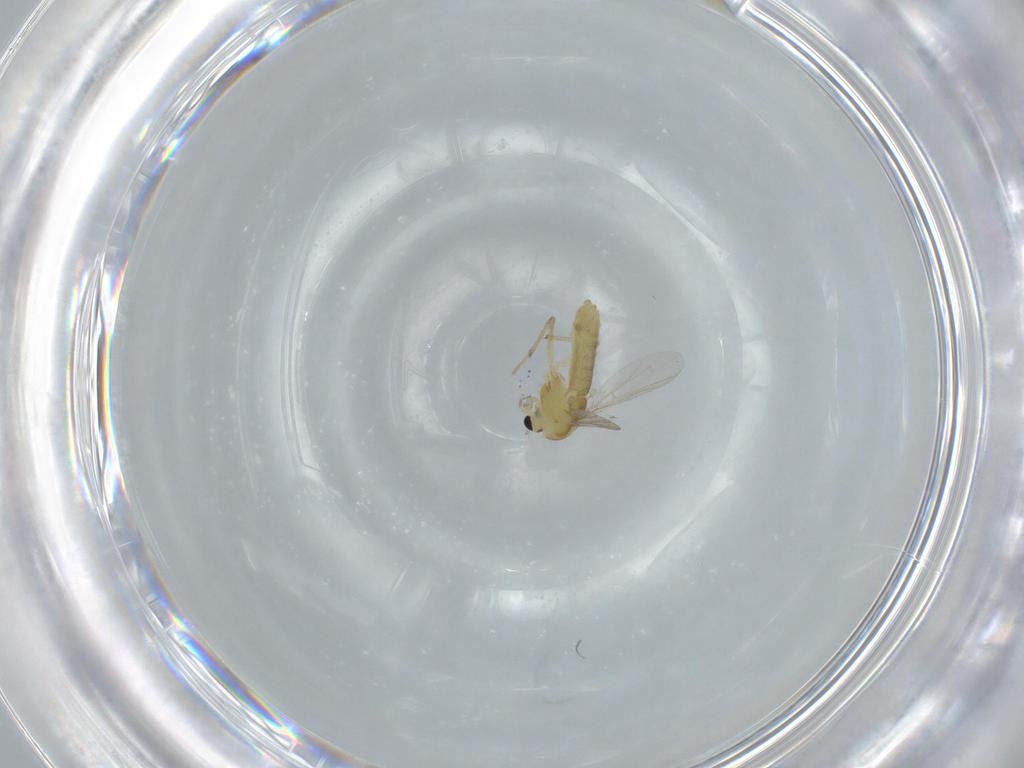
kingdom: Animalia
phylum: Arthropoda
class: Insecta
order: Diptera
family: Chironomidae
